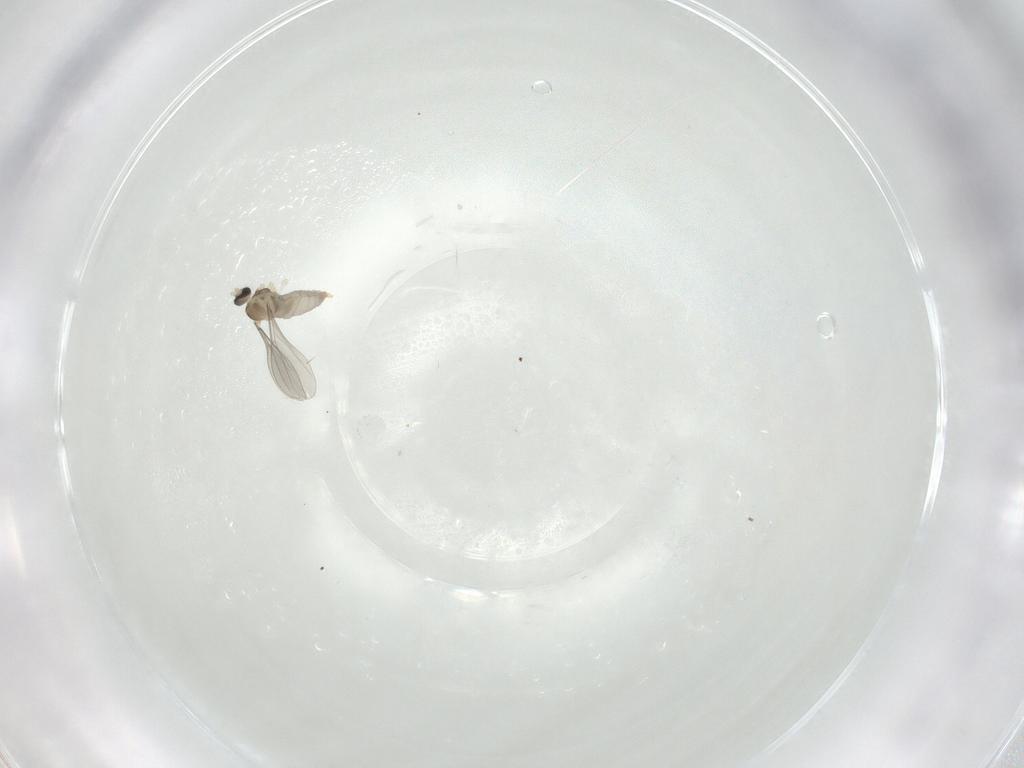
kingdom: Animalia
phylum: Arthropoda
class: Insecta
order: Diptera
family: Cecidomyiidae
